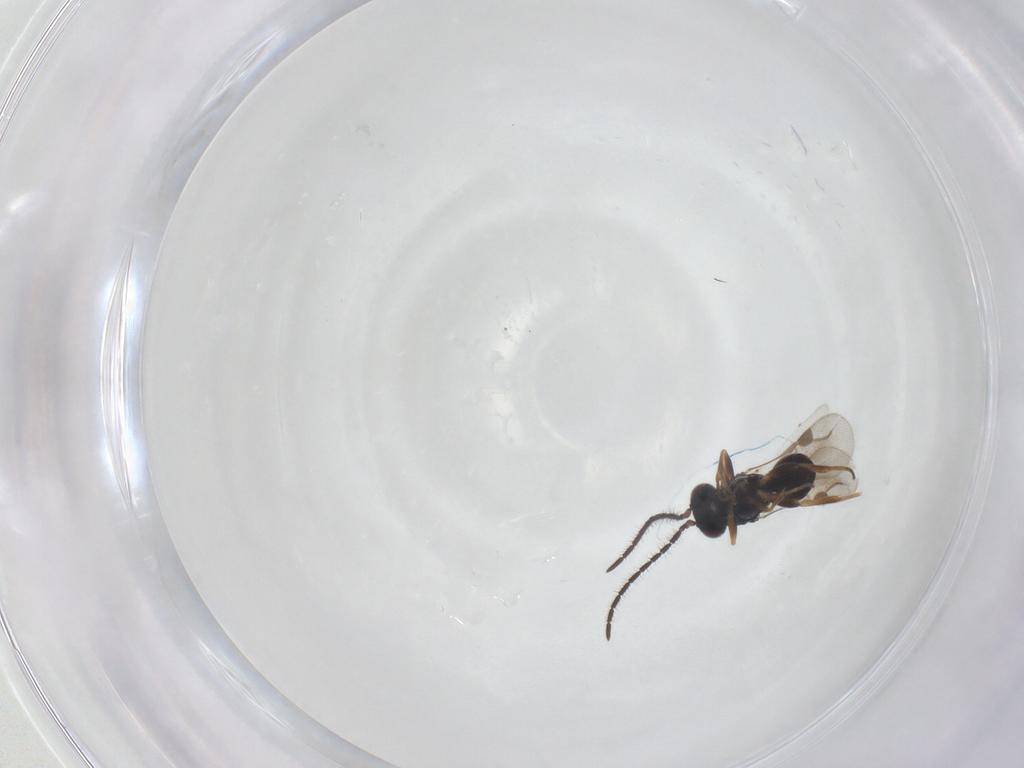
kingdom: Animalia
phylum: Arthropoda
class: Insecta
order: Hymenoptera
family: Megaspilidae
